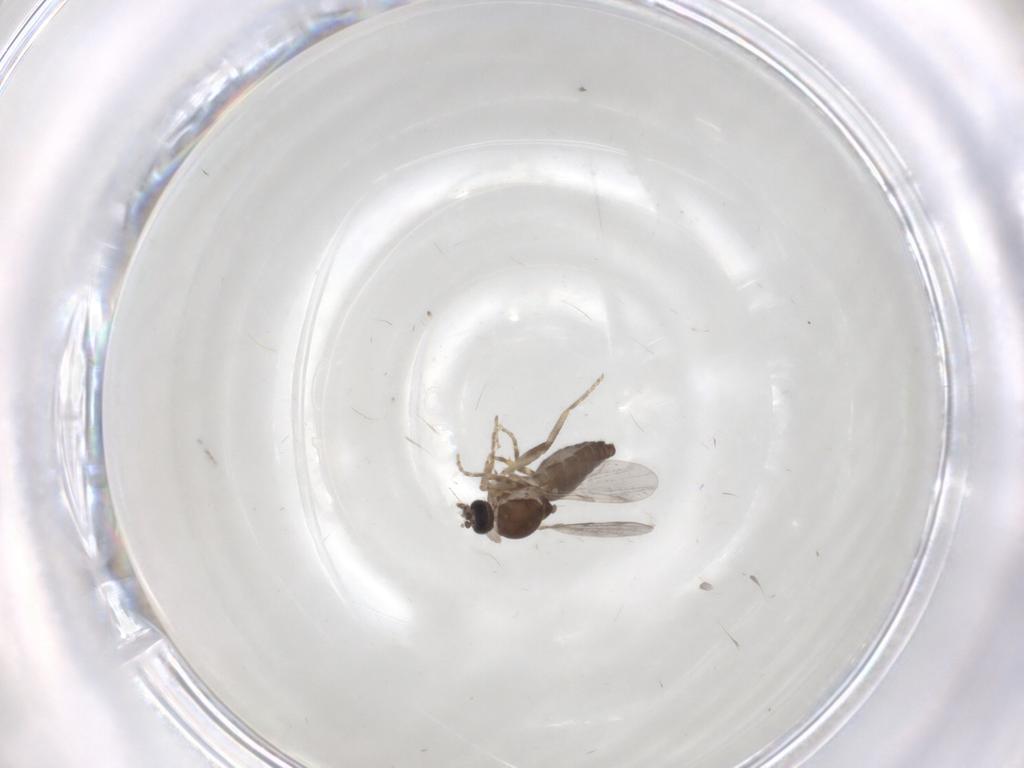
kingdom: Animalia
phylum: Arthropoda
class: Insecta
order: Diptera
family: Ceratopogonidae
